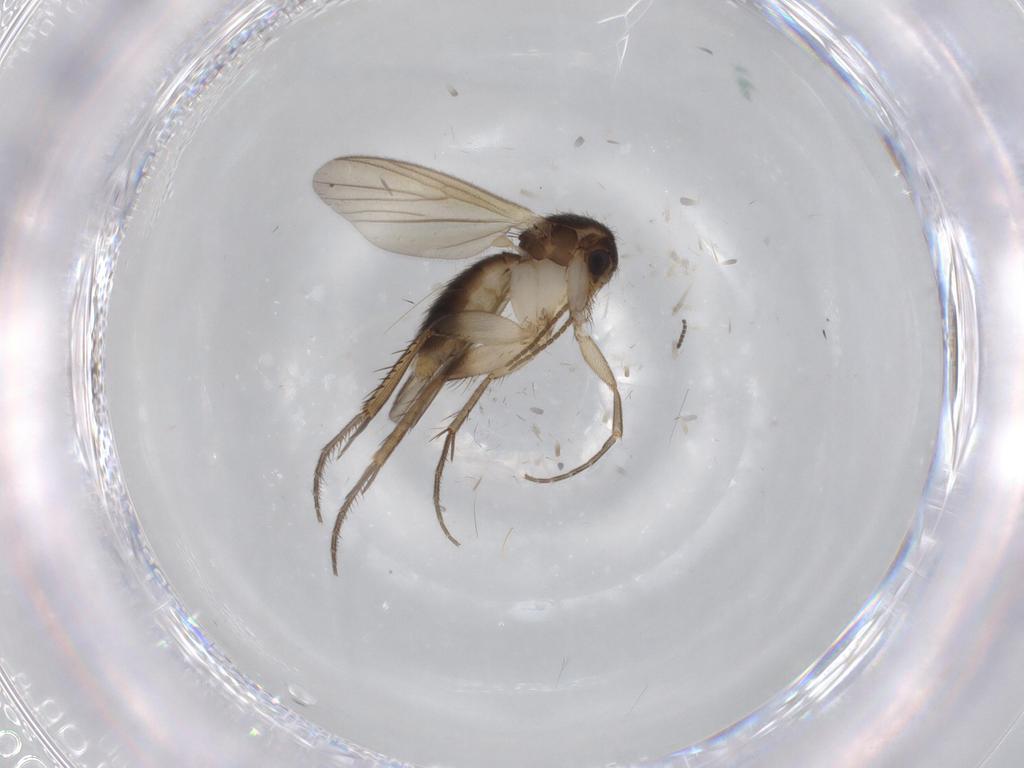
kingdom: Animalia
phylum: Arthropoda
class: Insecta
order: Diptera
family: Mycetophilidae
